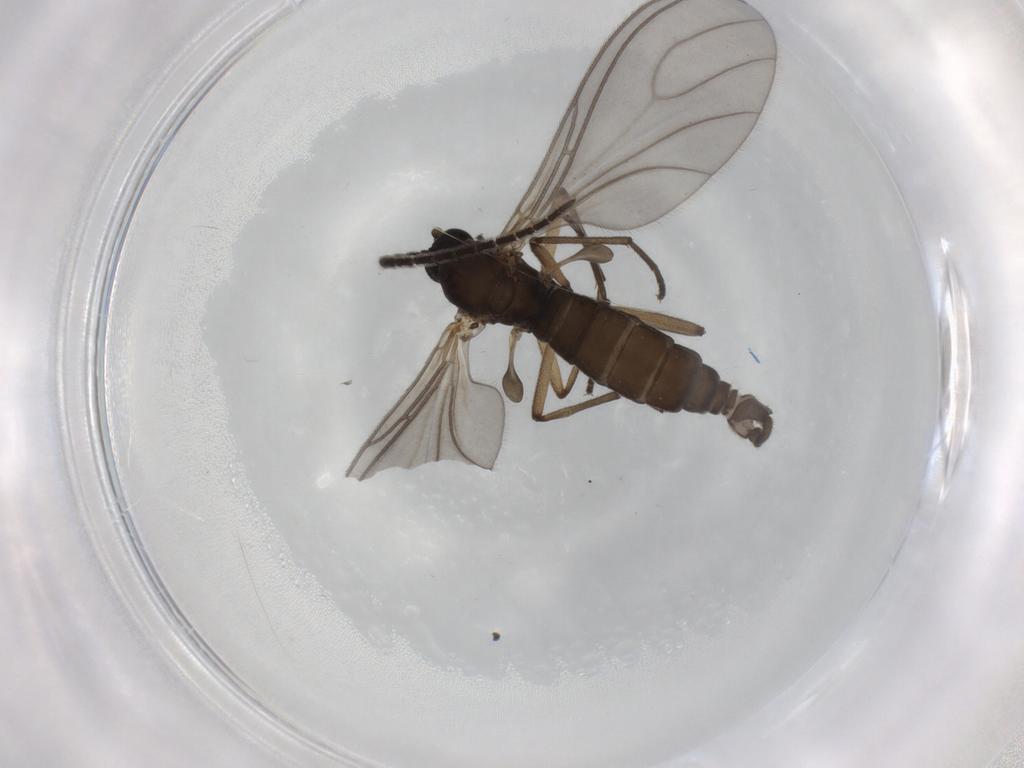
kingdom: Animalia
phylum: Arthropoda
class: Insecta
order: Diptera
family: Sciaridae
